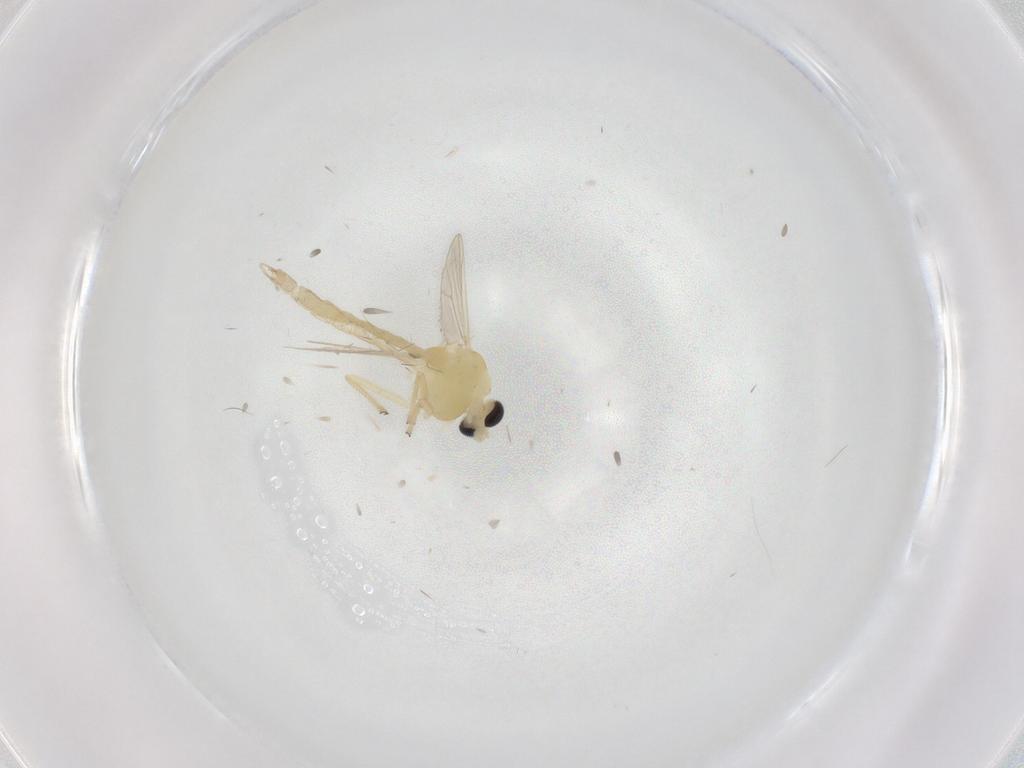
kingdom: Animalia
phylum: Arthropoda
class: Insecta
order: Diptera
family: Chironomidae
